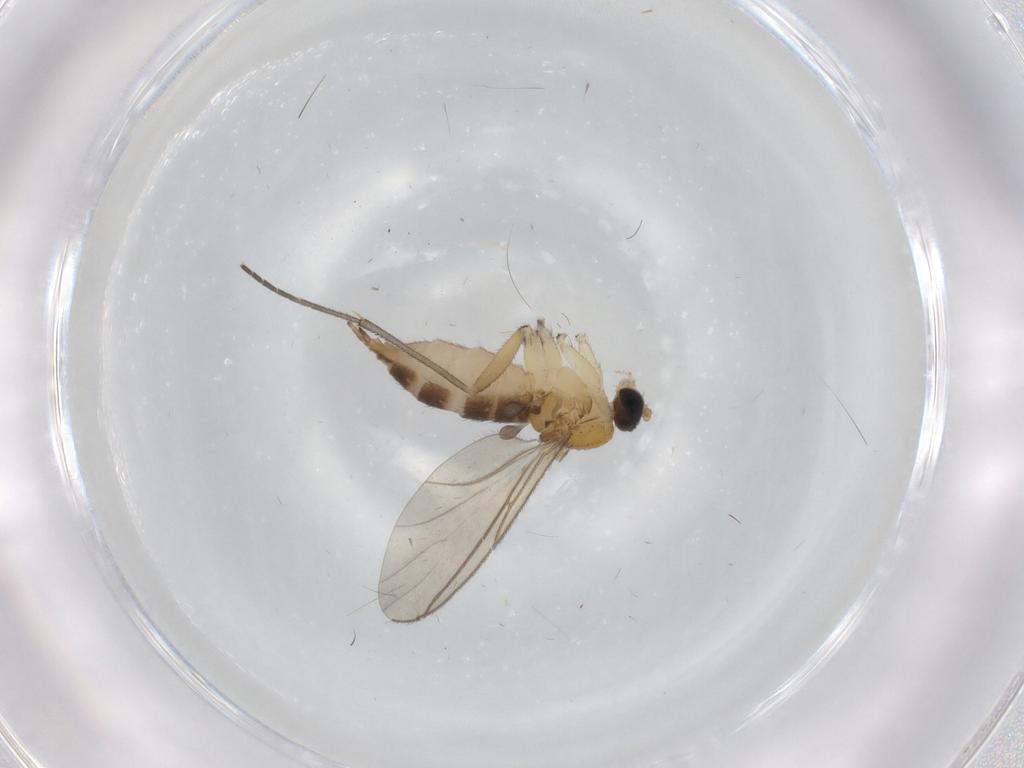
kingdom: Animalia
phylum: Arthropoda
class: Insecta
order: Diptera
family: Sciaridae
